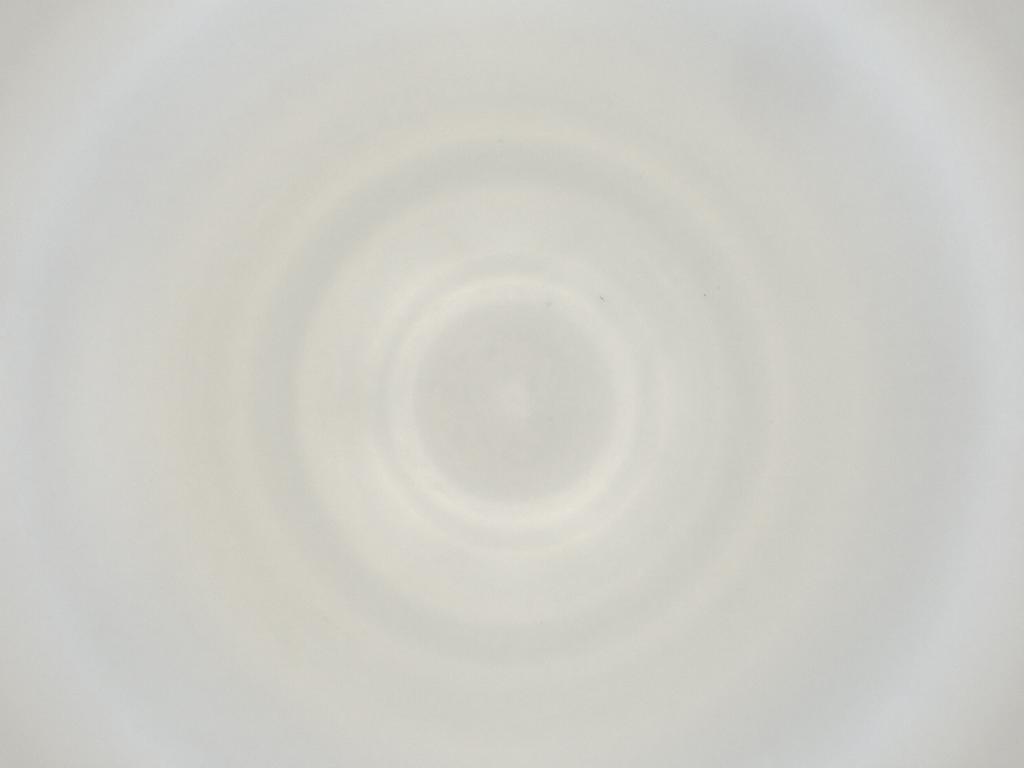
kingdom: Animalia
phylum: Arthropoda
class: Insecta
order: Diptera
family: Cecidomyiidae
